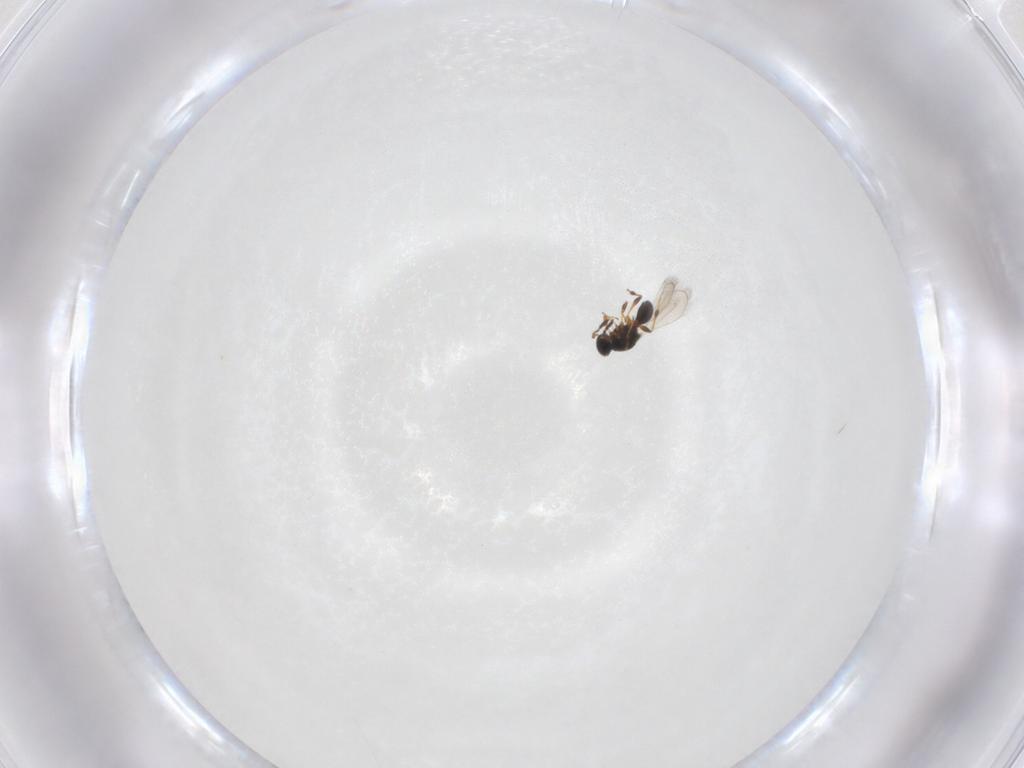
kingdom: Animalia
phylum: Arthropoda
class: Insecta
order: Hymenoptera
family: Platygastridae
